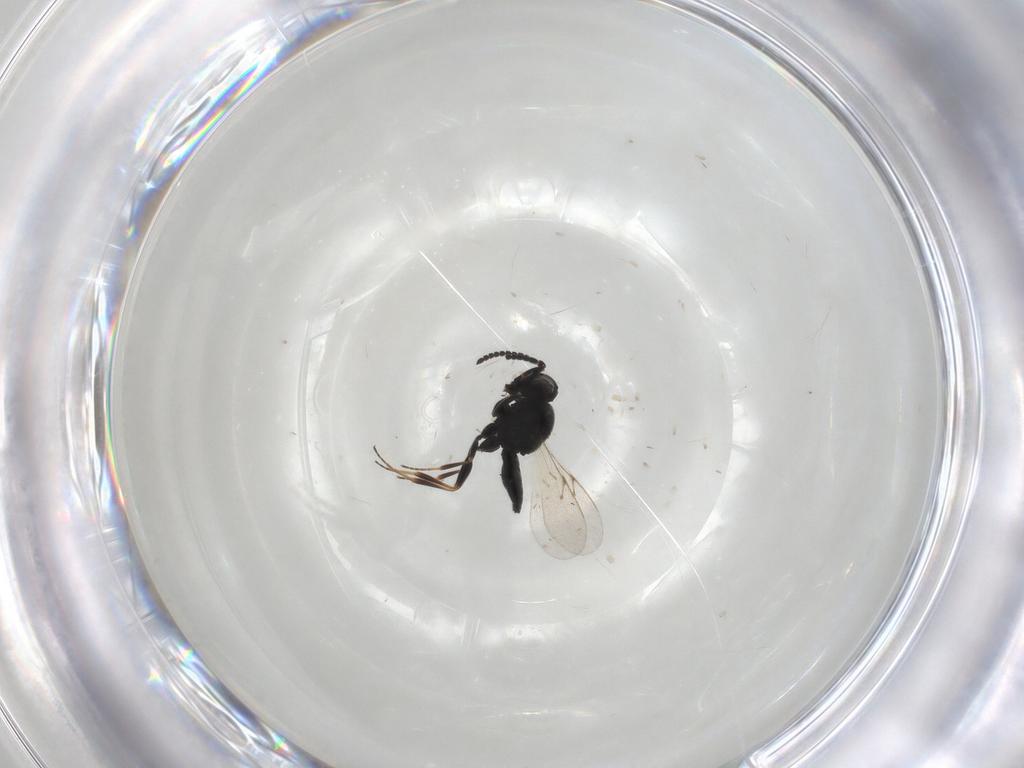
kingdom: Animalia
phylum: Arthropoda
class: Insecta
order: Hymenoptera
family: Scelionidae
